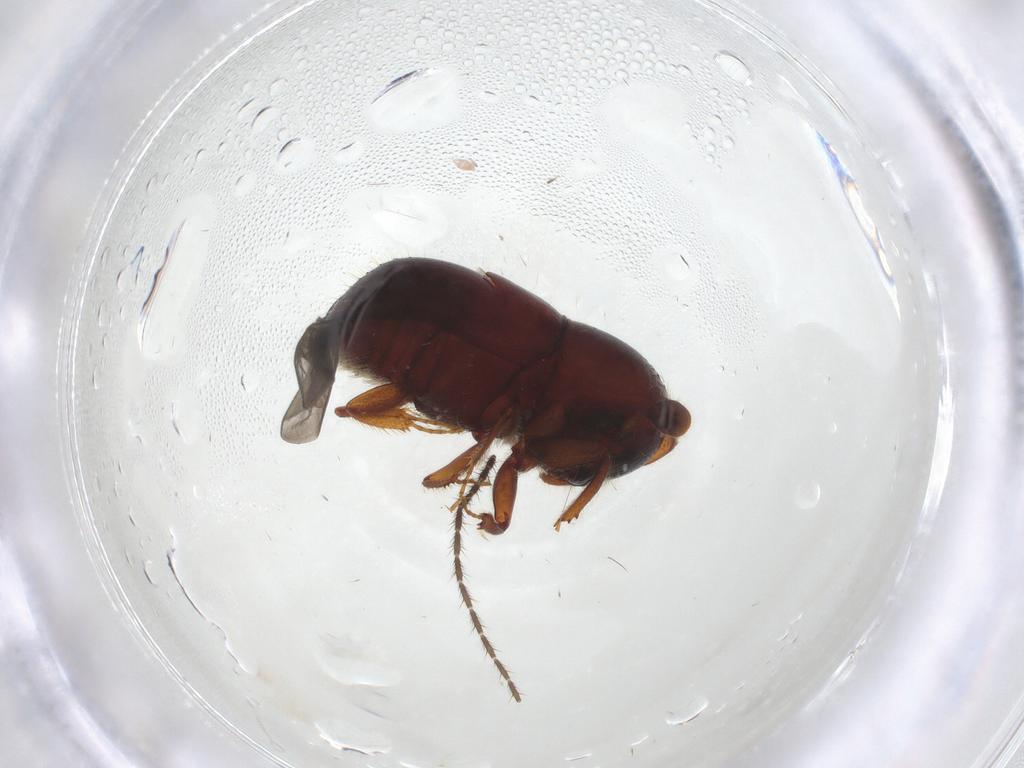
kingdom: Animalia
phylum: Arthropoda
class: Insecta
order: Coleoptera
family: Curculionidae
